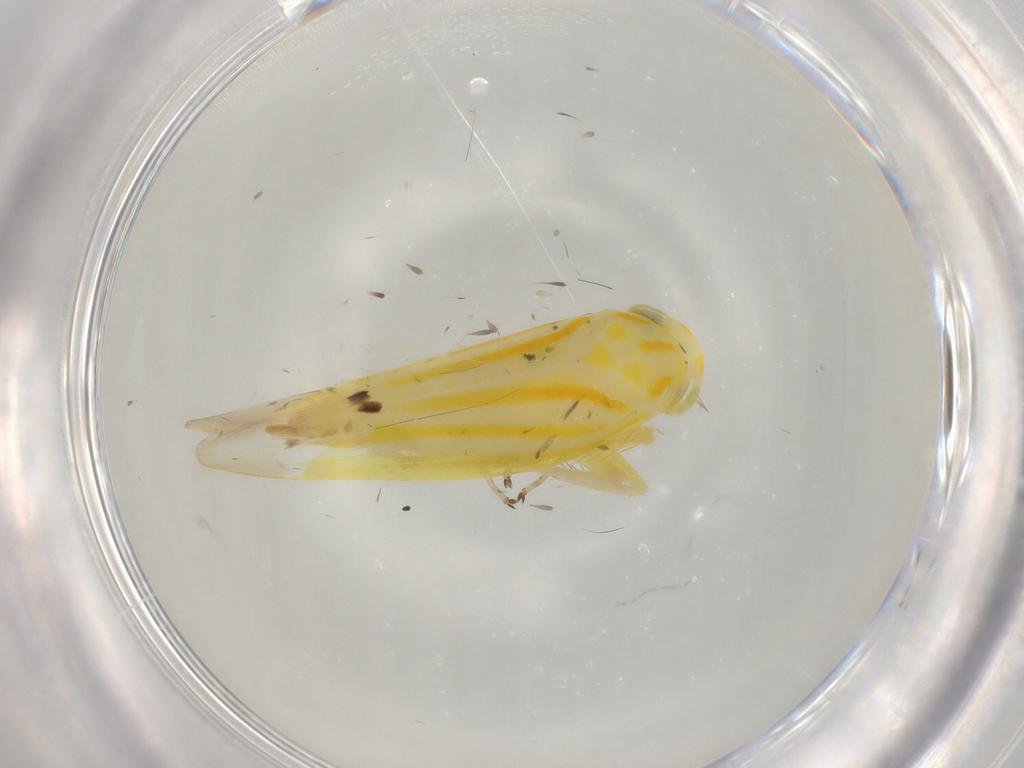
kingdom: Animalia
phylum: Arthropoda
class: Insecta
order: Hemiptera
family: Cicadellidae
